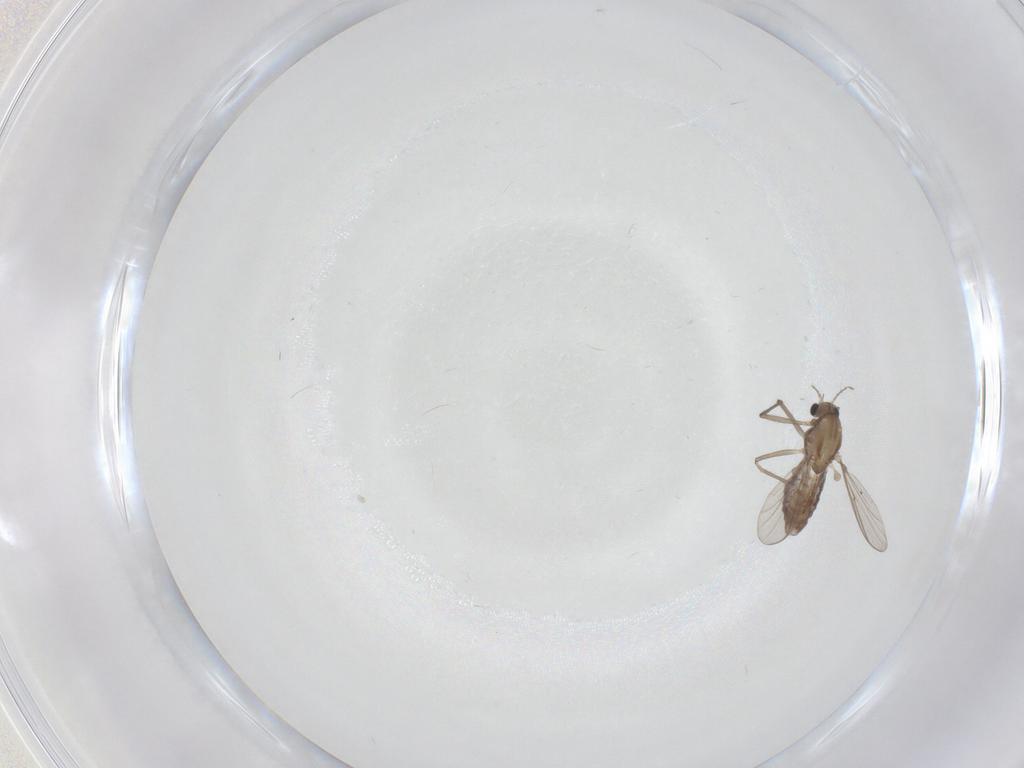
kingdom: Animalia
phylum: Arthropoda
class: Insecta
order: Diptera
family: Chironomidae
